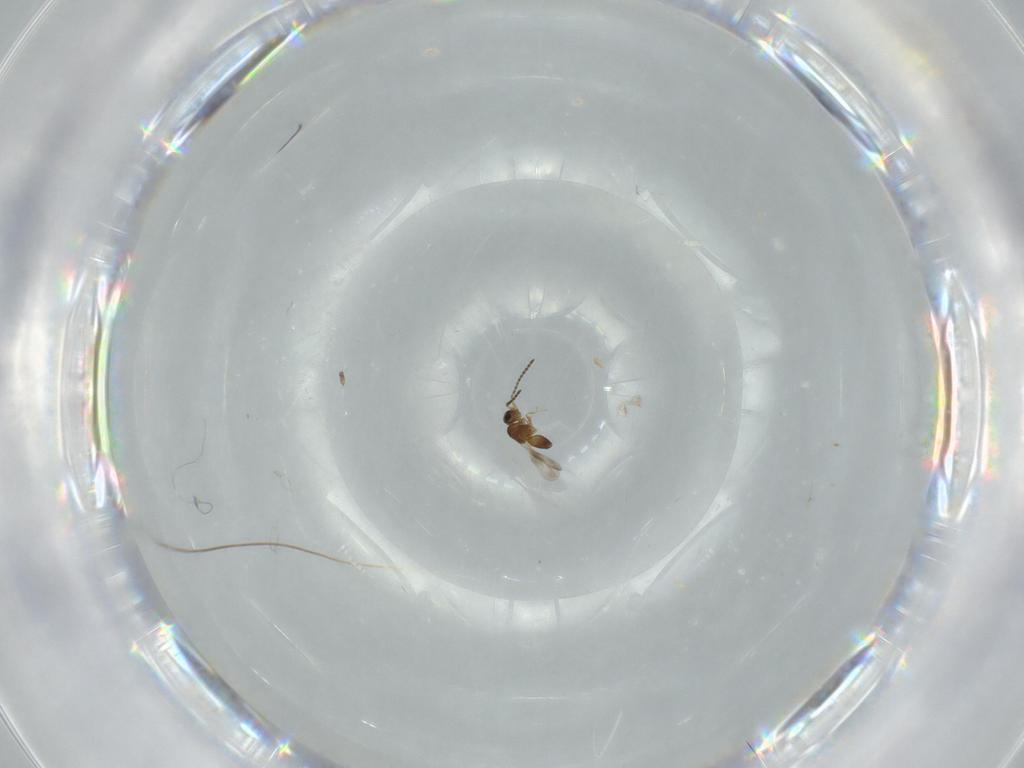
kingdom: Animalia
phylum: Arthropoda
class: Insecta
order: Hymenoptera
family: Ceraphronidae
